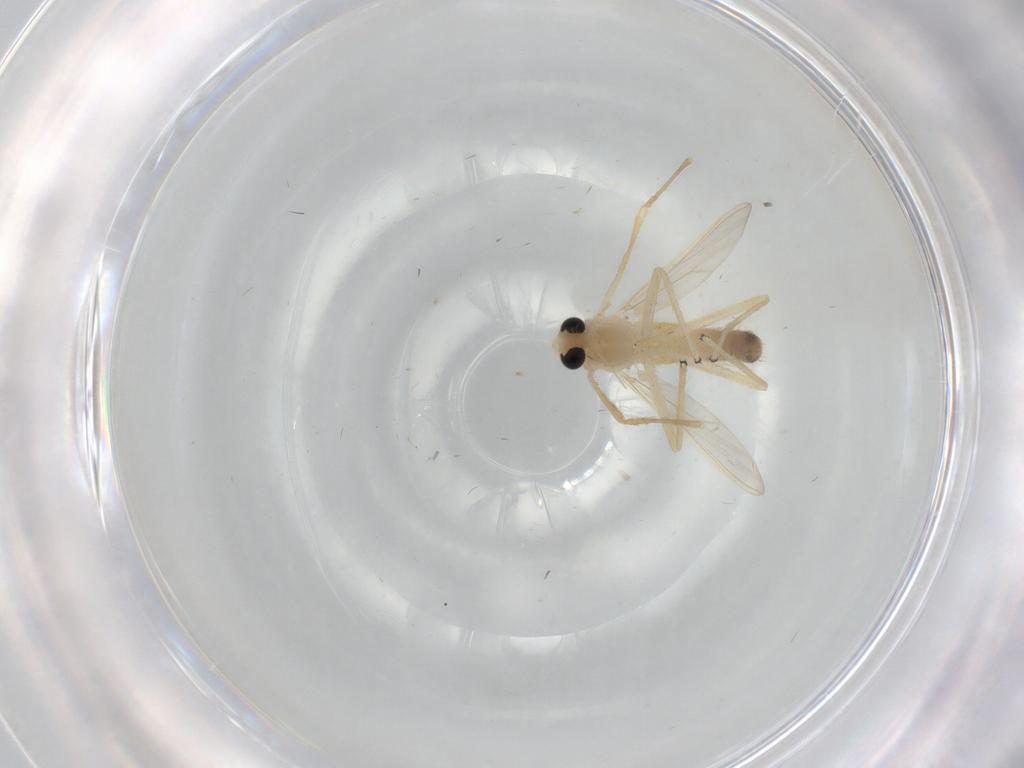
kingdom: Animalia
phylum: Arthropoda
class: Insecta
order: Diptera
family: Chironomidae
